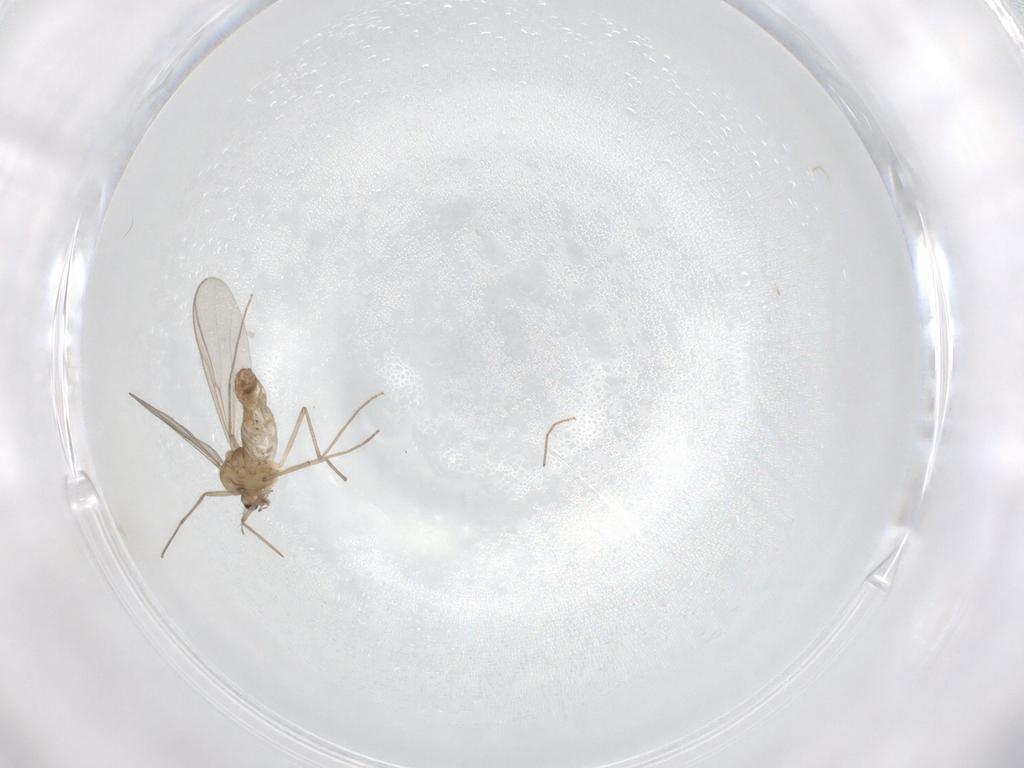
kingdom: Animalia
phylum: Arthropoda
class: Insecta
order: Diptera
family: Chironomidae
